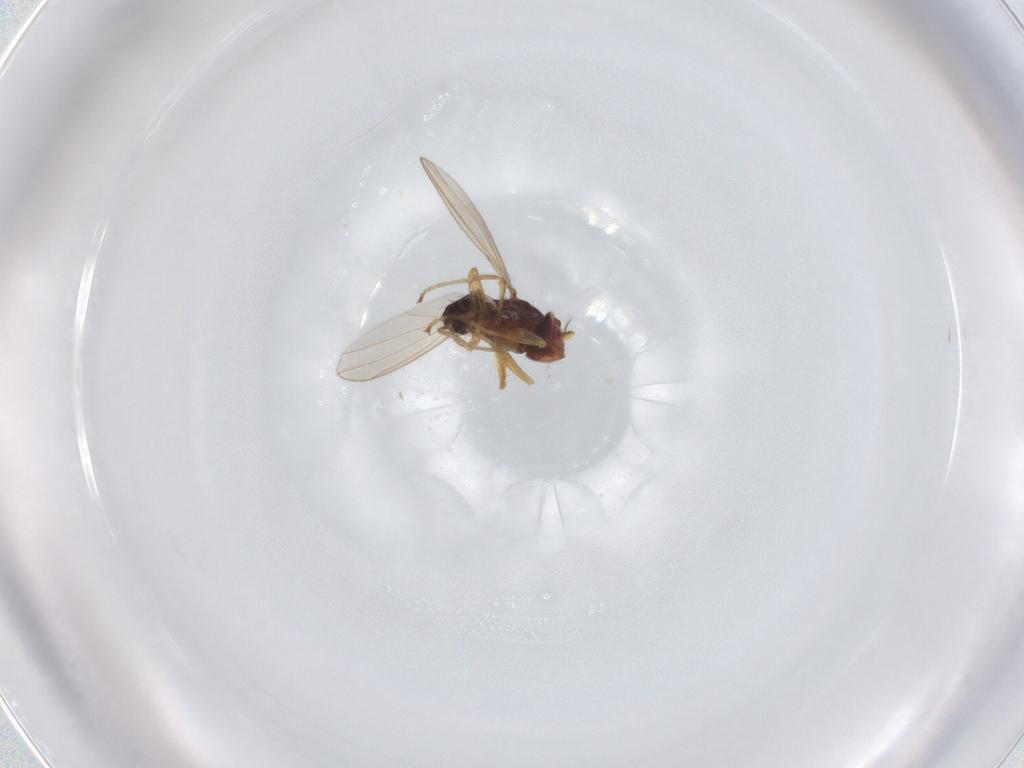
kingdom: Animalia
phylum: Arthropoda
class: Insecta
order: Diptera
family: Ephydridae
